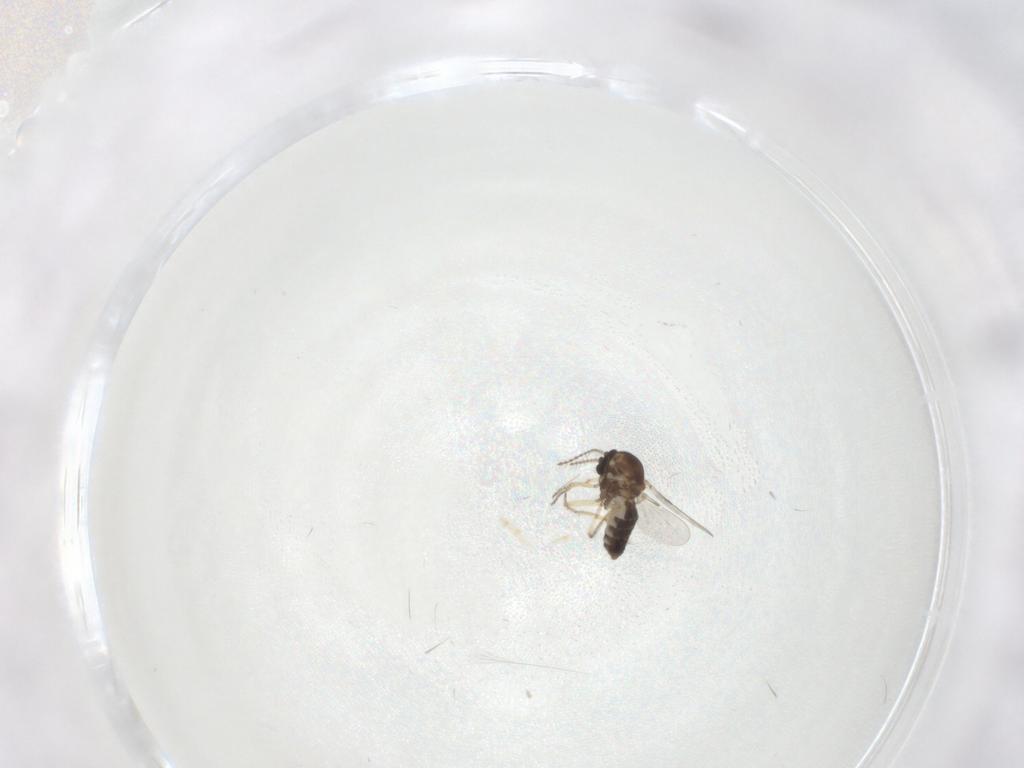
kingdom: Animalia
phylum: Arthropoda
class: Insecta
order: Diptera
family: Ceratopogonidae
